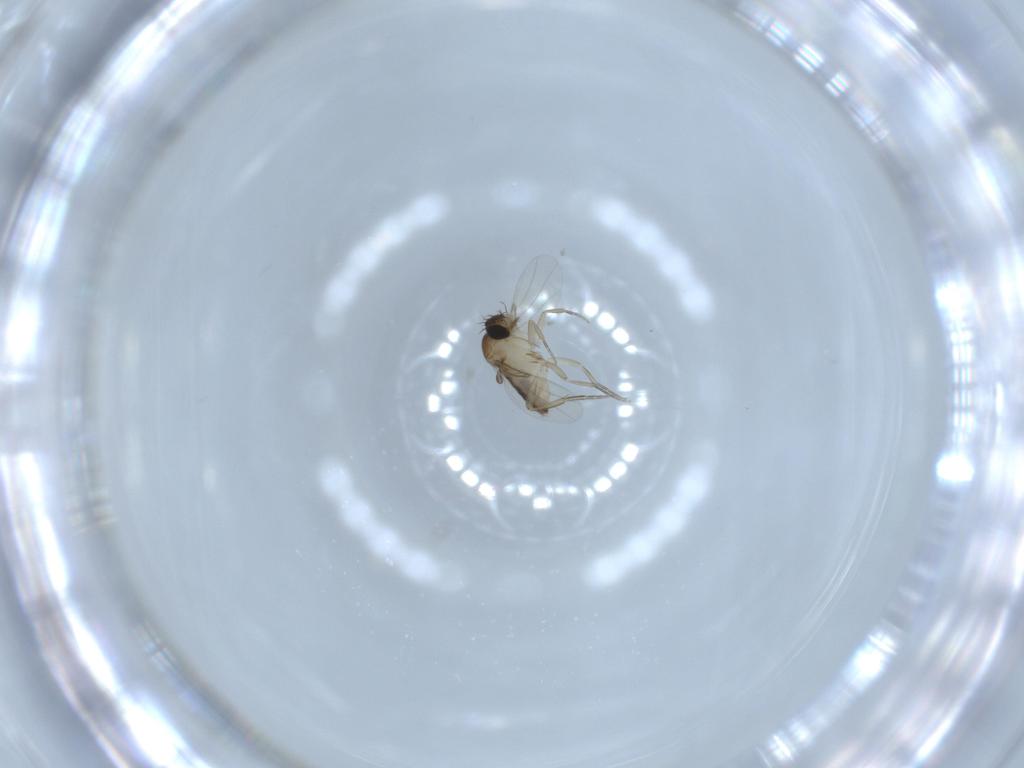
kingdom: Animalia
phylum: Arthropoda
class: Insecta
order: Diptera
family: Phoridae
